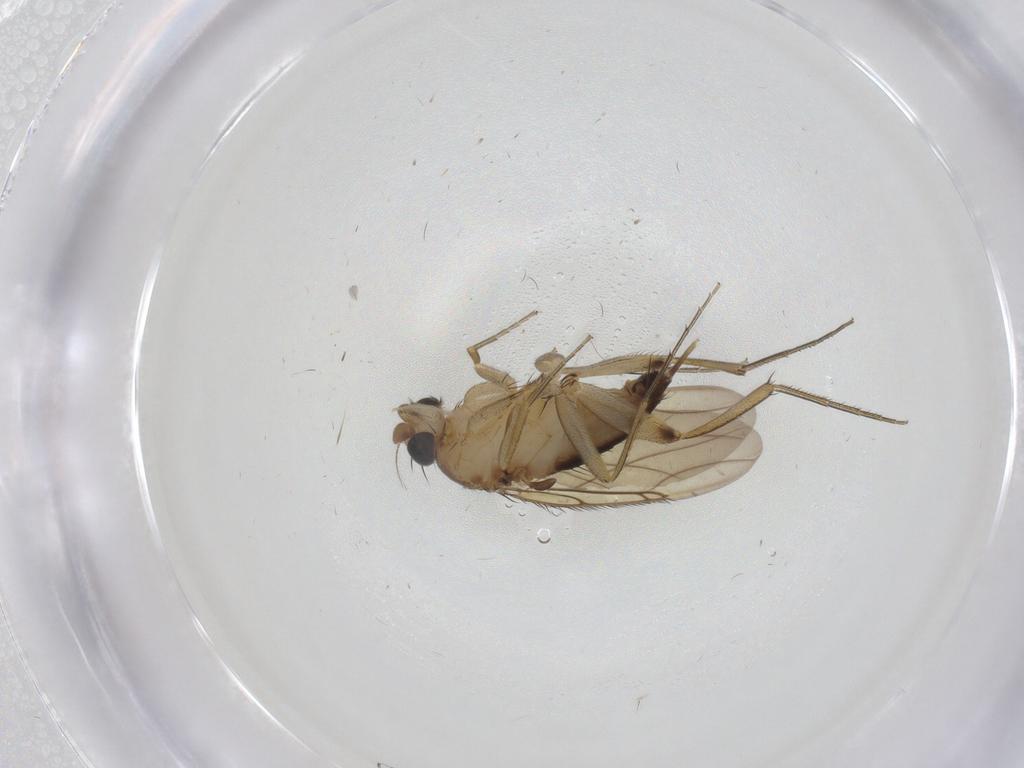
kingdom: Animalia
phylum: Arthropoda
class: Insecta
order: Diptera
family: Phoridae
